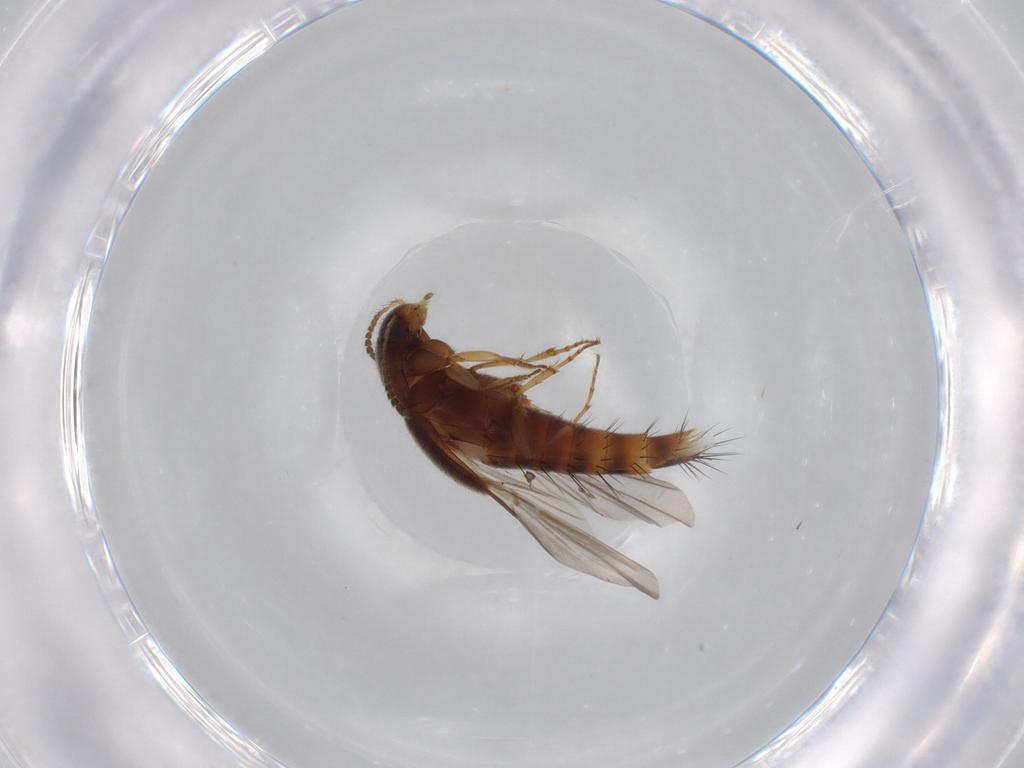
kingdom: Animalia
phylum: Arthropoda
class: Insecta
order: Coleoptera
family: Staphylinidae
